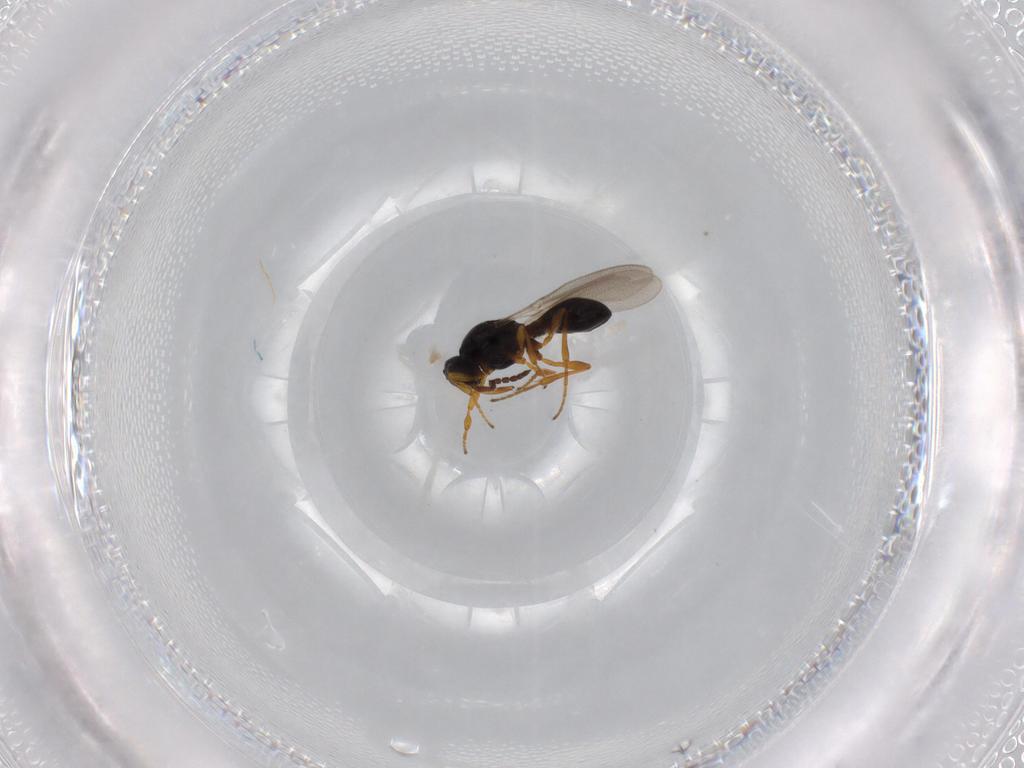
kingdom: Animalia
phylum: Arthropoda
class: Insecta
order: Hymenoptera
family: Platygastridae
